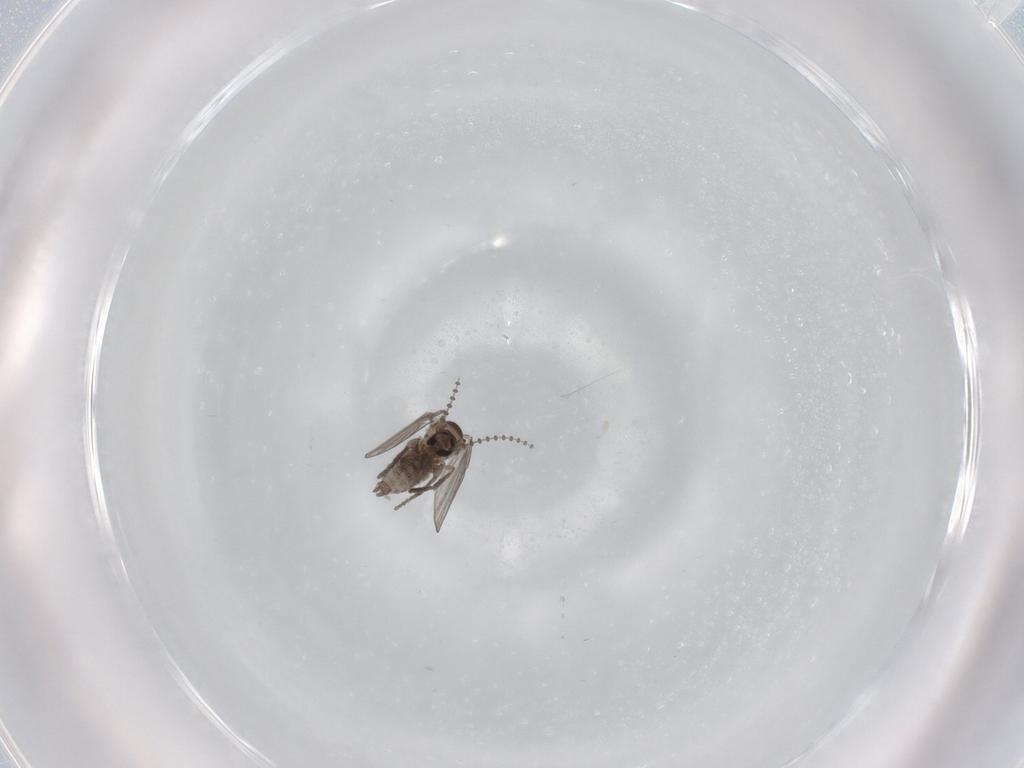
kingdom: Animalia
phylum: Arthropoda
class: Insecta
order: Diptera
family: Psychodidae
